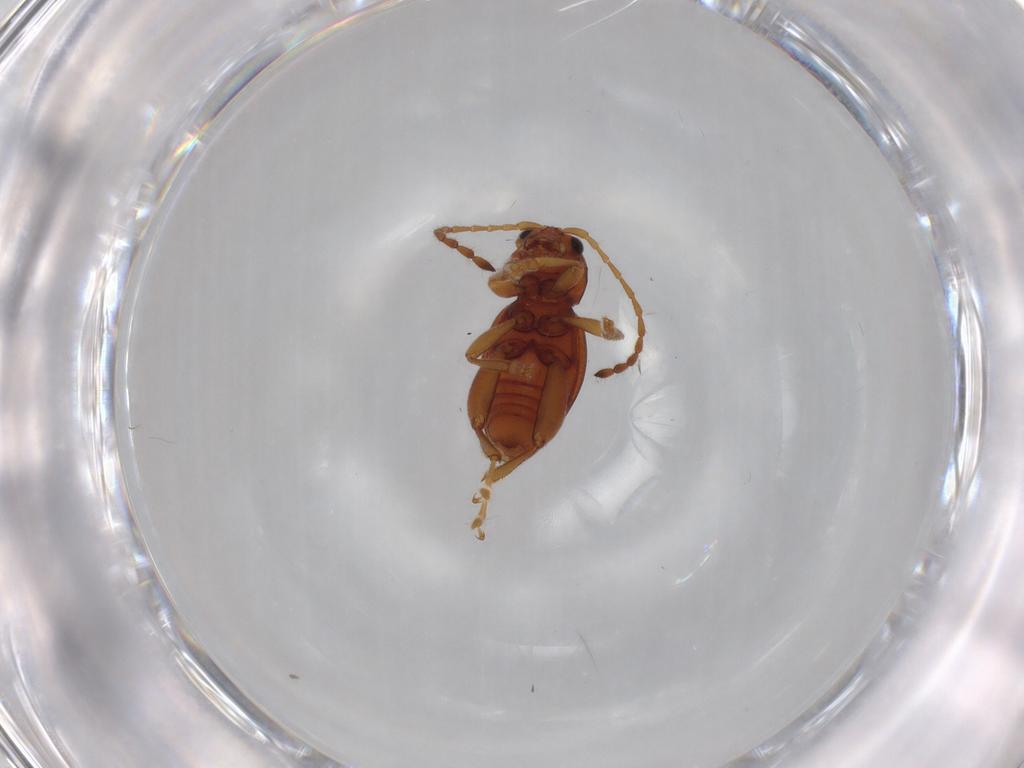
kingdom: Animalia
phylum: Arthropoda
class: Insecta
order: Coleoptera
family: Chrysomelidae
